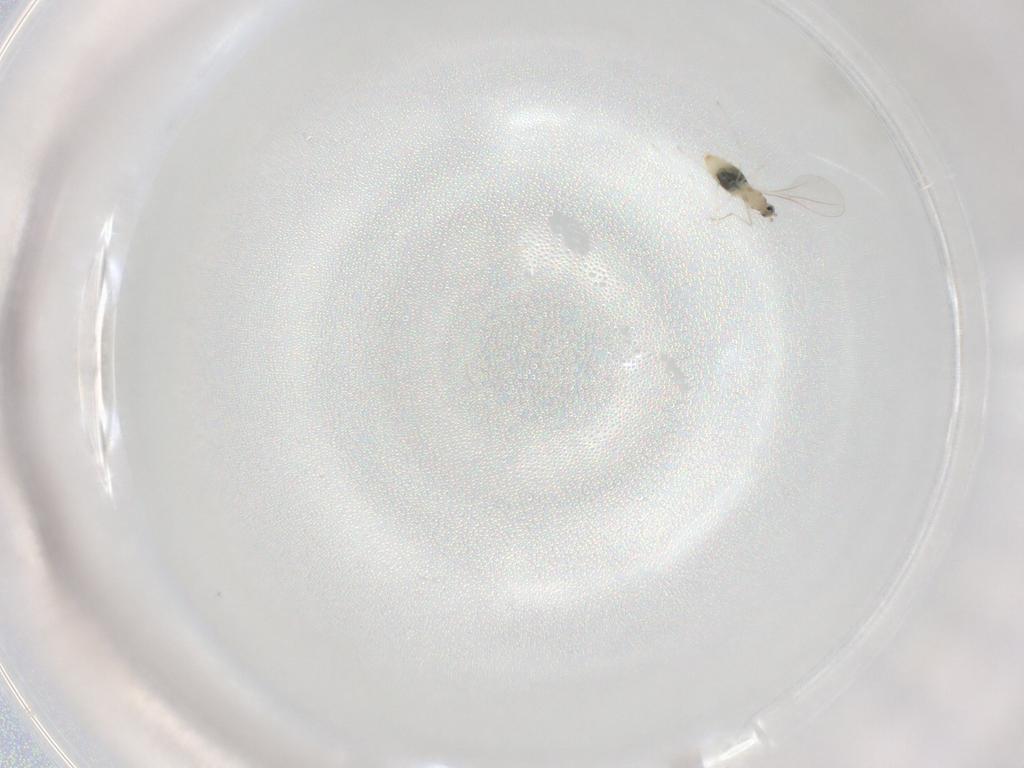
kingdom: Animalia
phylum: Arthropoda
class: Insecta
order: Diptera
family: Cecidomyiidae
